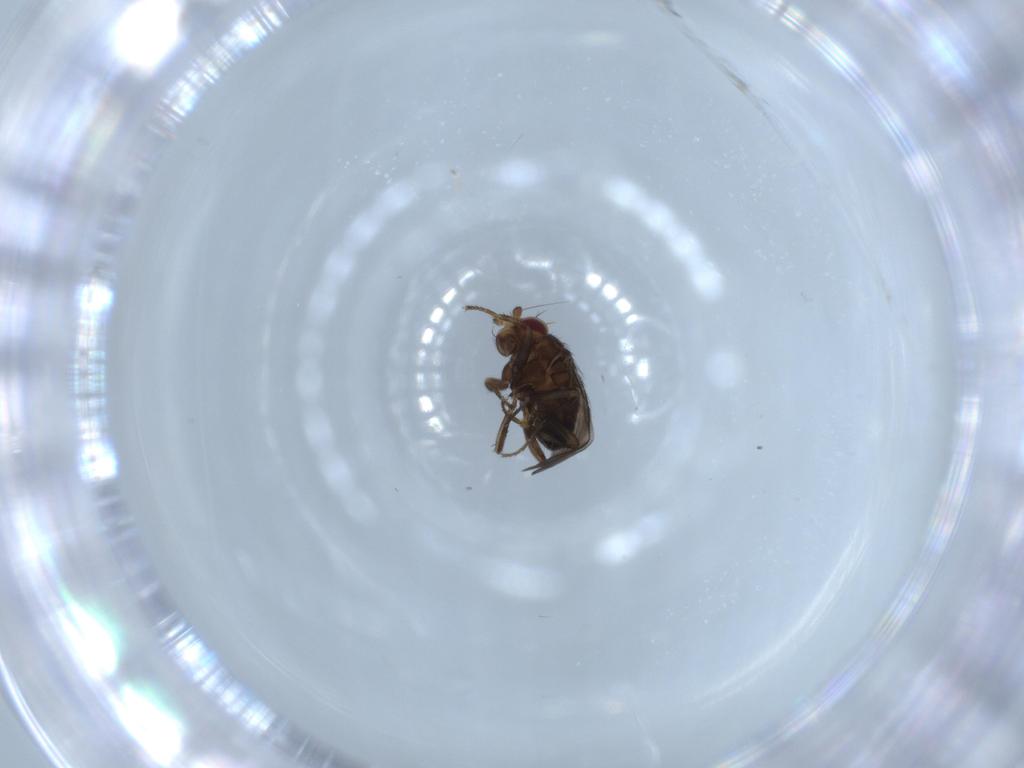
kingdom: Animalia
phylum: Arthropoda
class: Insecta
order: Diptera
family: Sphaeroceridae
